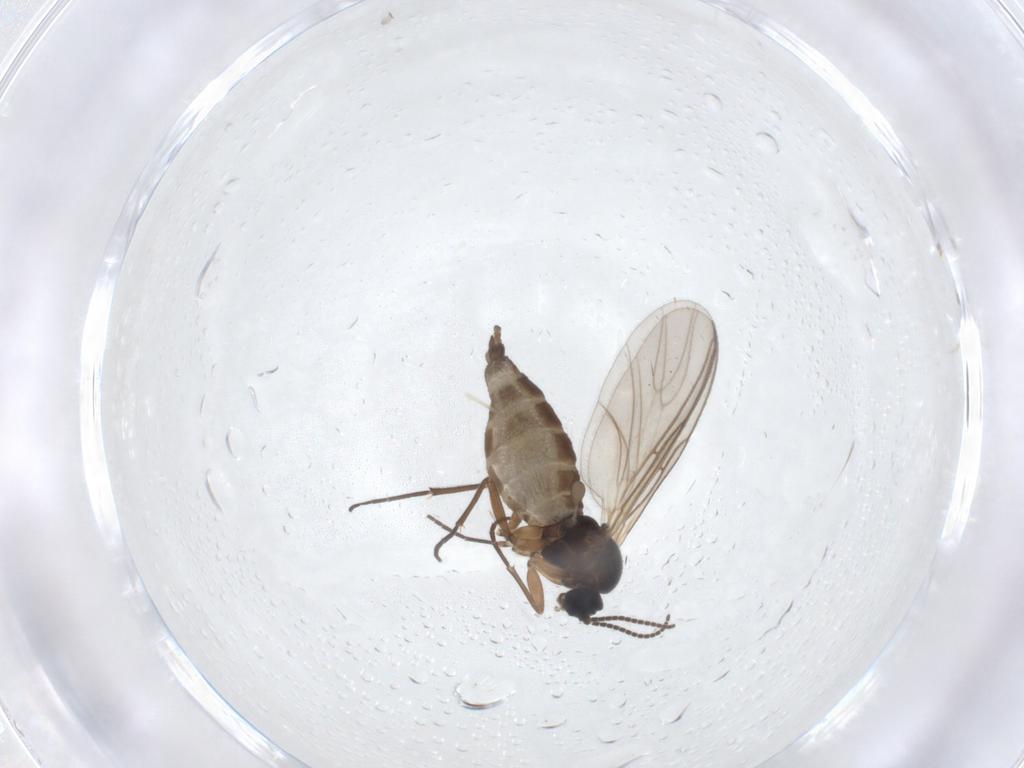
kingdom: Animalia
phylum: Arthropoda
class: Insecta
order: Diptera
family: Sciaridae
